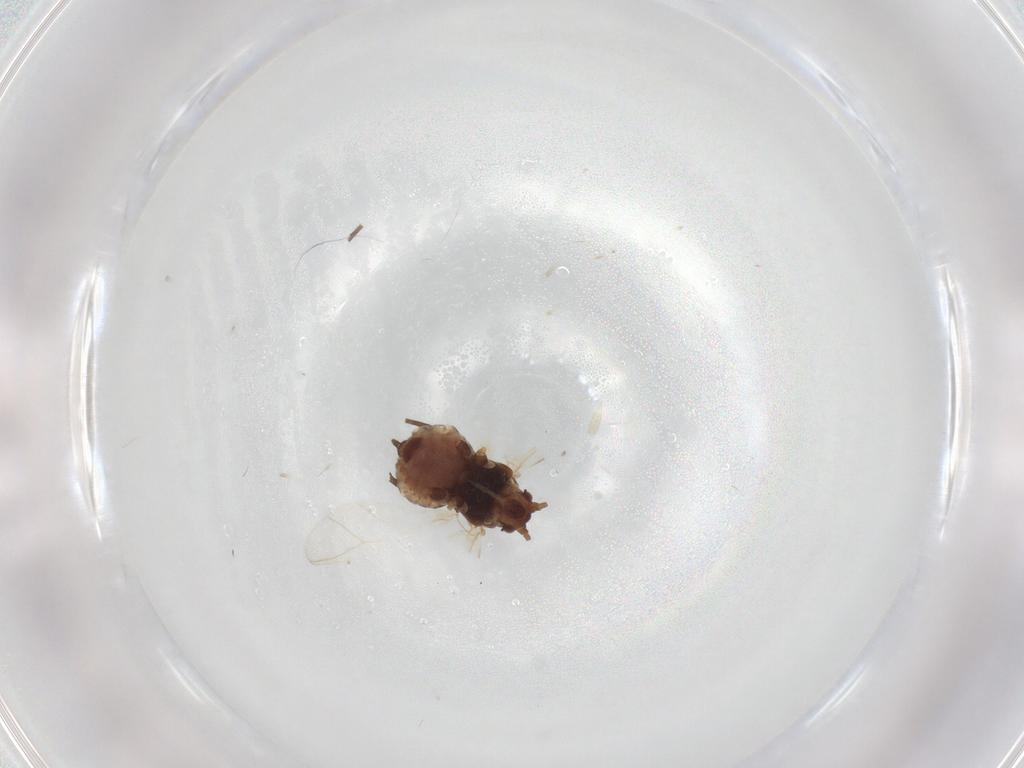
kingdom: Animalia
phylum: Arthropoda
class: Insecta
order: Hemiptera
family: Aphididae
